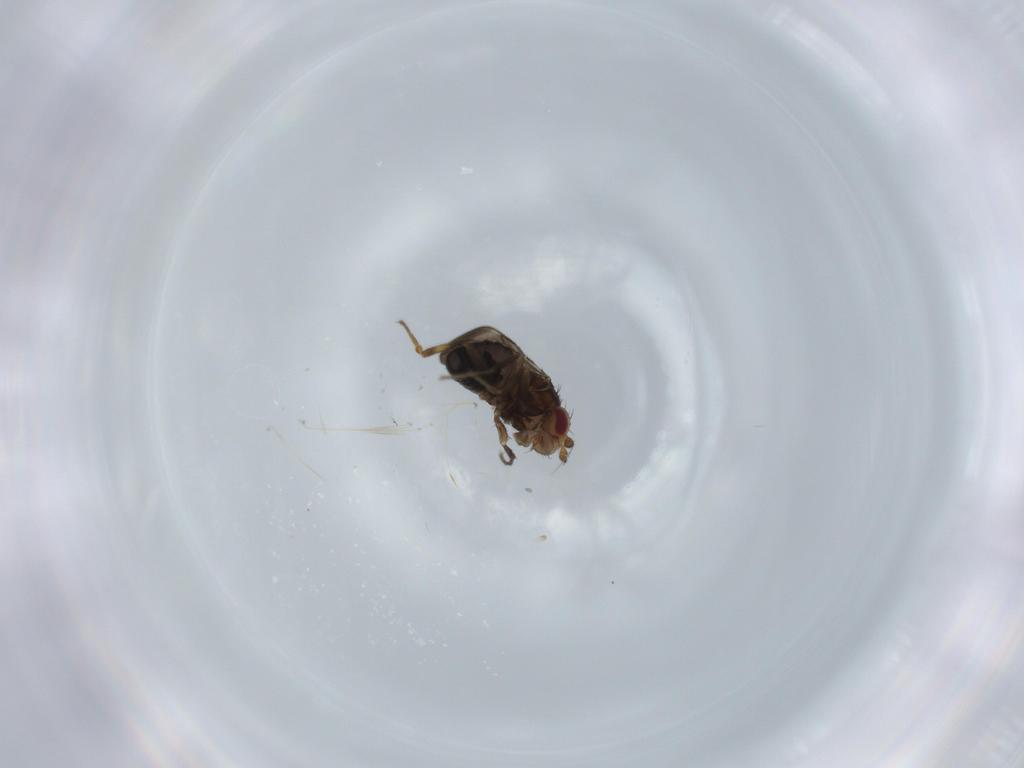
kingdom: Animalia
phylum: Arthropoda
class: Insecta
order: Diptera
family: Sphaeroceridae
